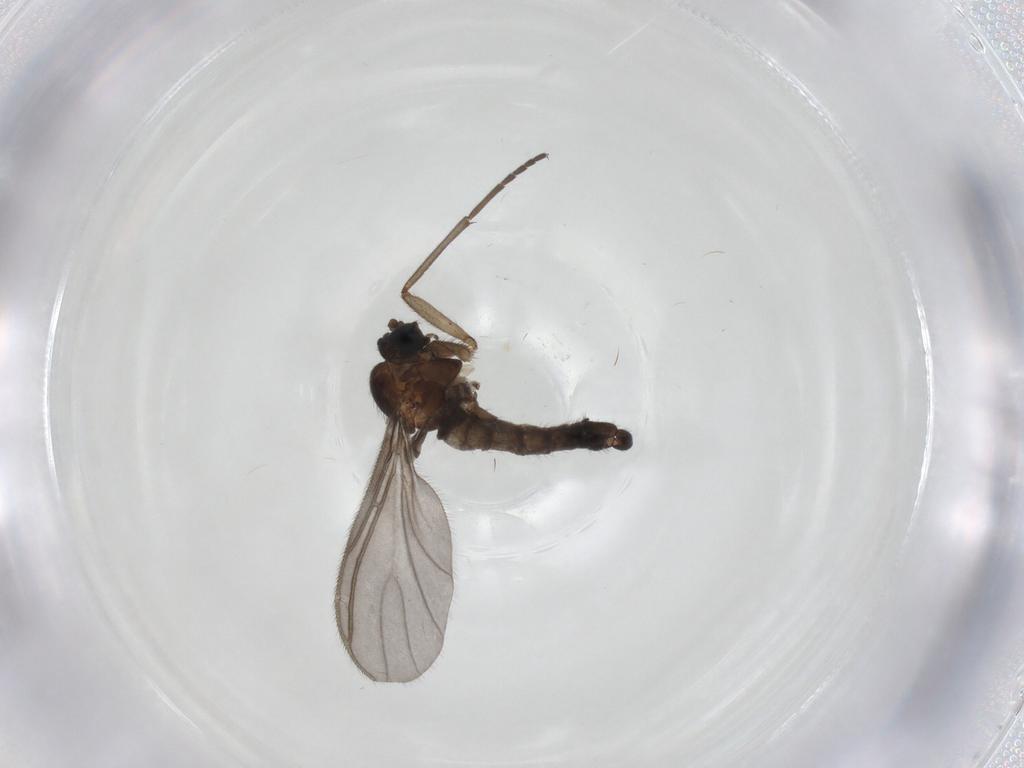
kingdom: Animalia
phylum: Arthropoda
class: Insecta
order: Diptera
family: Sciaridae
